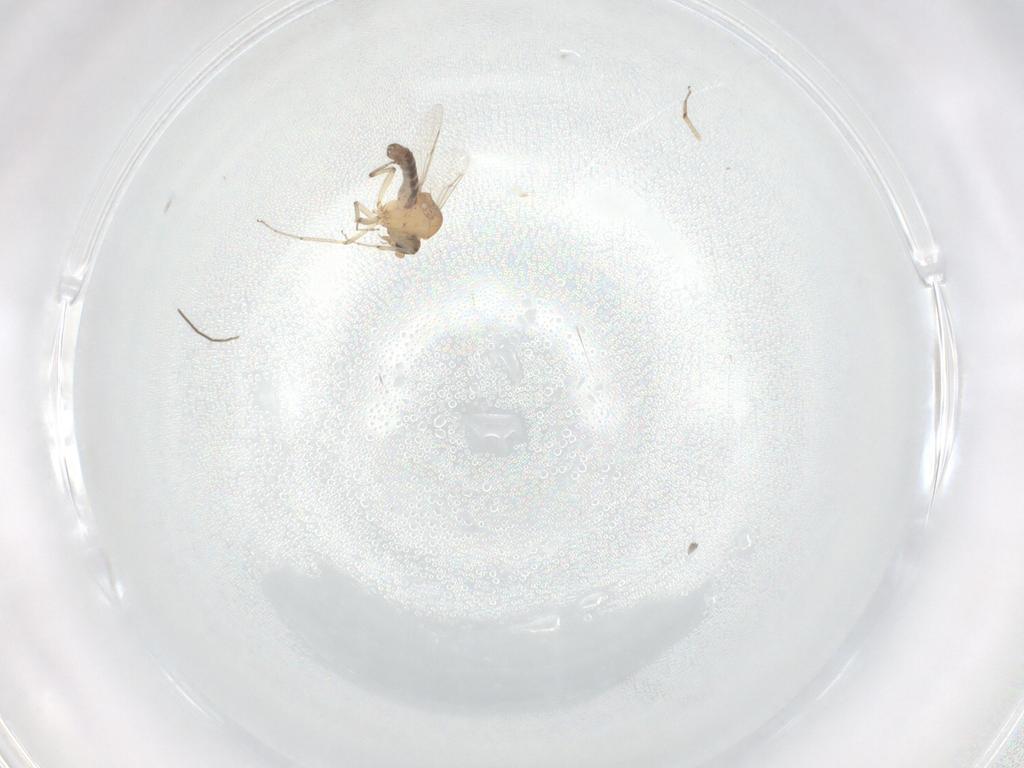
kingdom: Animalia
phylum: Arthropoda
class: Insecta
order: Diptera
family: Ceratopogonidae
